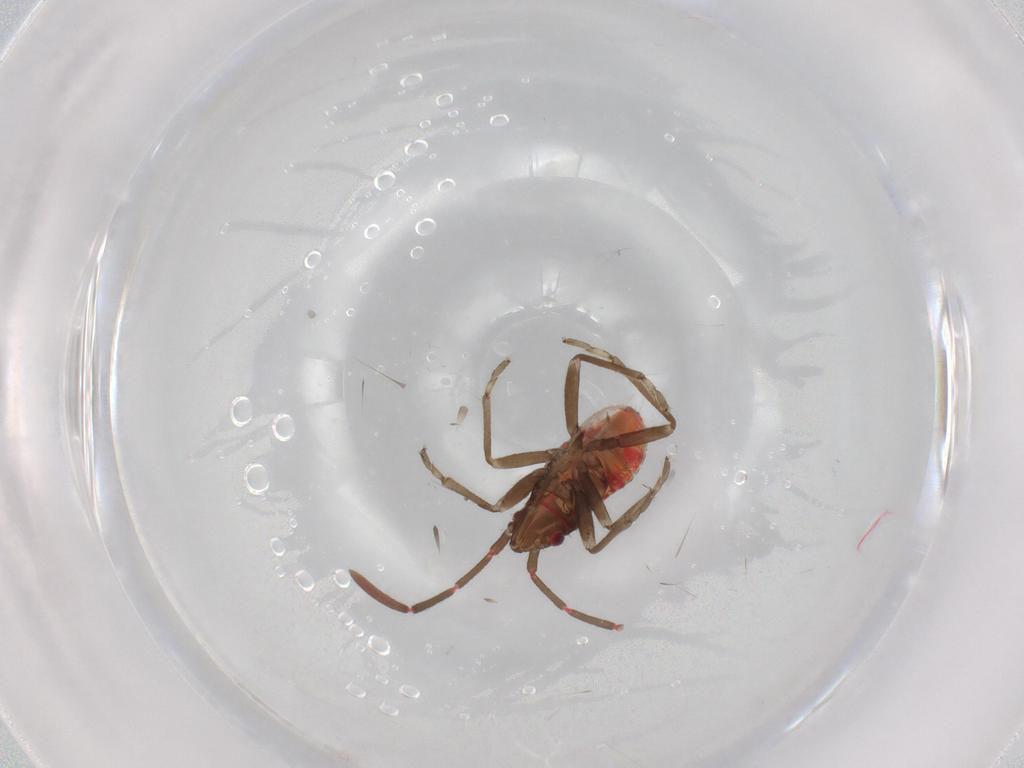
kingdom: Animalia
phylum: Arthropoda
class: Insecta
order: Hemiptera
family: Rhyparochromidae
